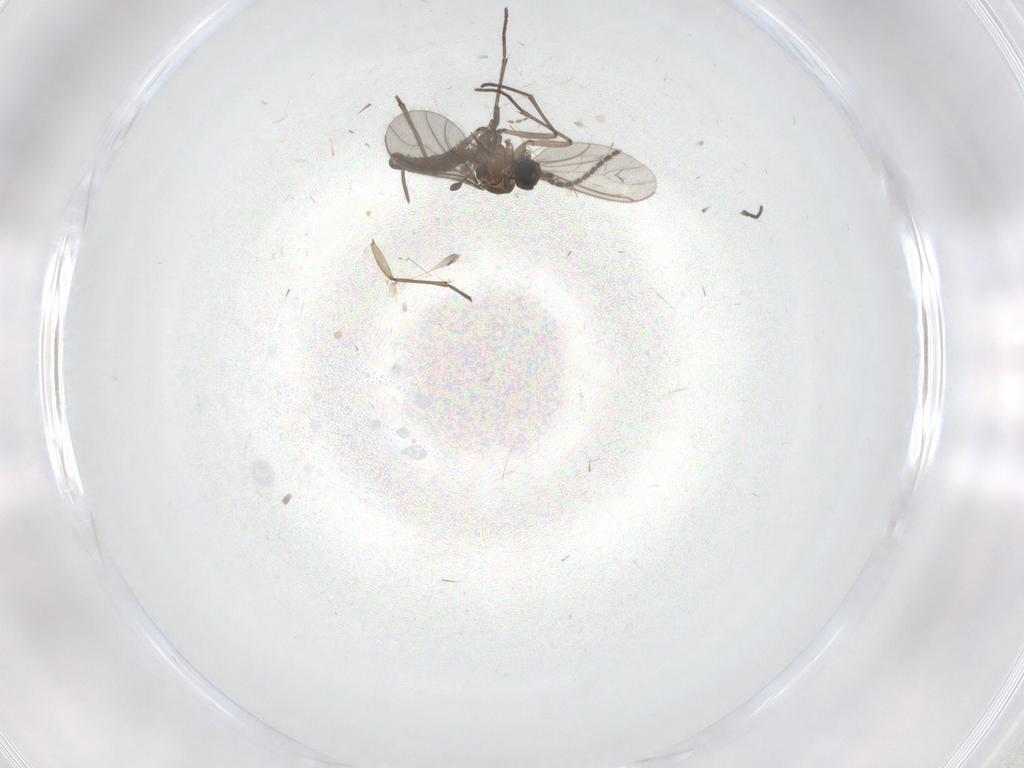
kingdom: Animalia
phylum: Arthropoda
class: Insecta
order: Diptera
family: Sciaridae
